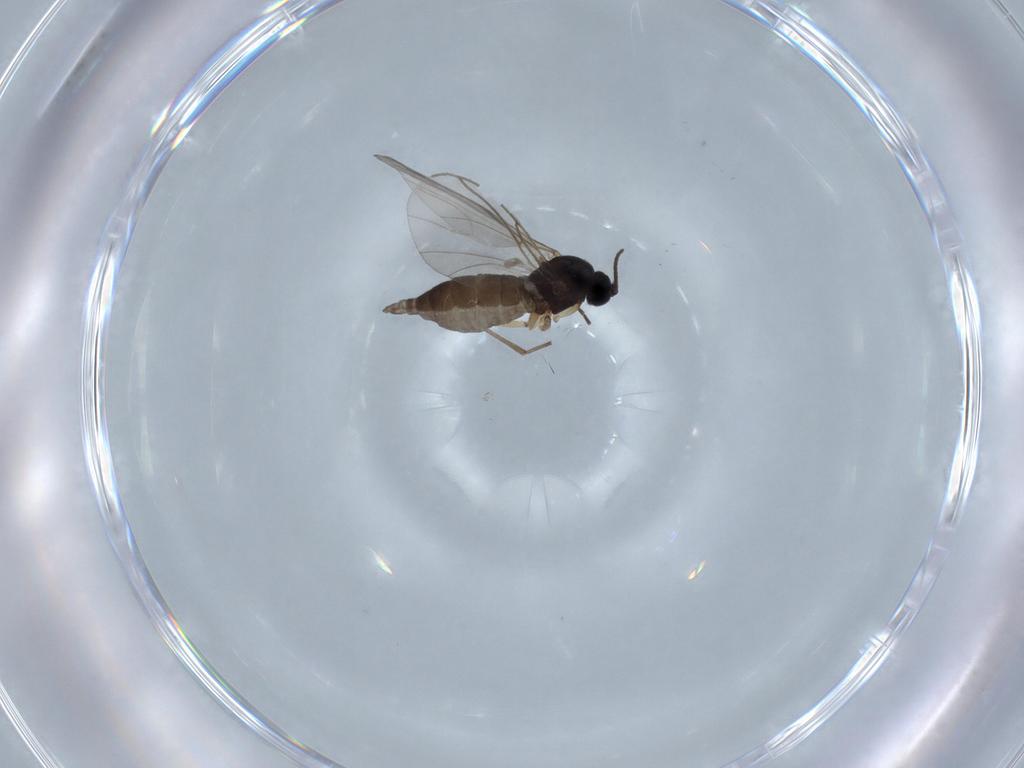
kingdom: Animalia
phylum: Arthropoda
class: Insecta
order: Diptera
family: Sciaridae
